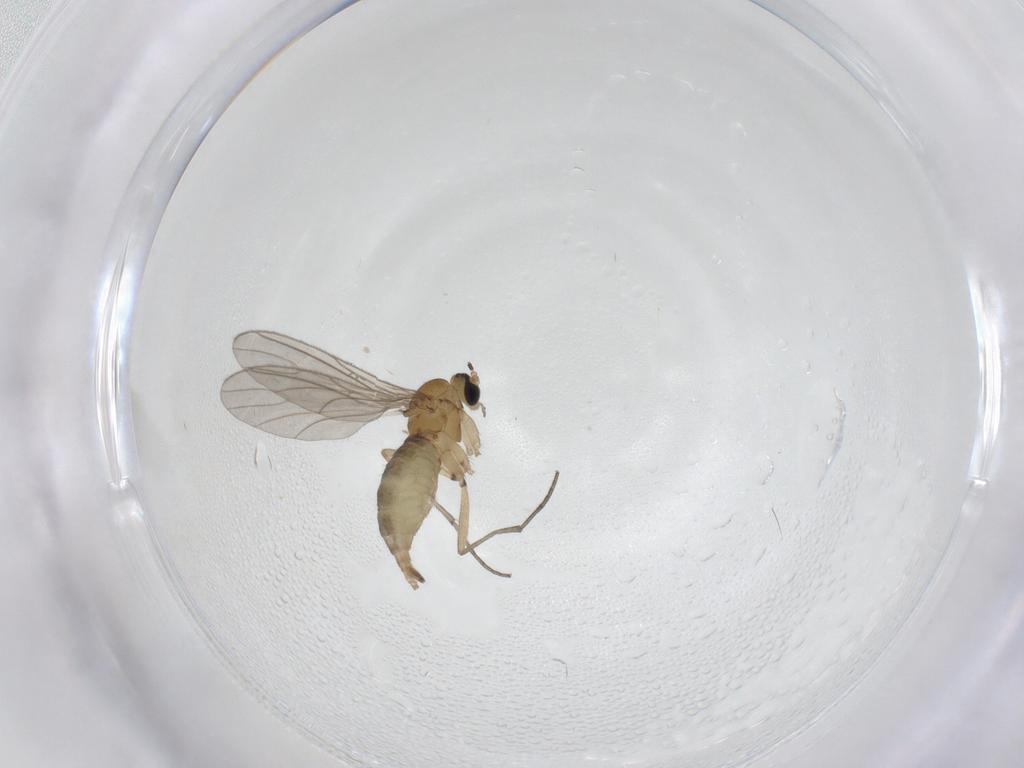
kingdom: Animalia
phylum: Arthropoda
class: Insecta
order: Diptera
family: Sciaridae
